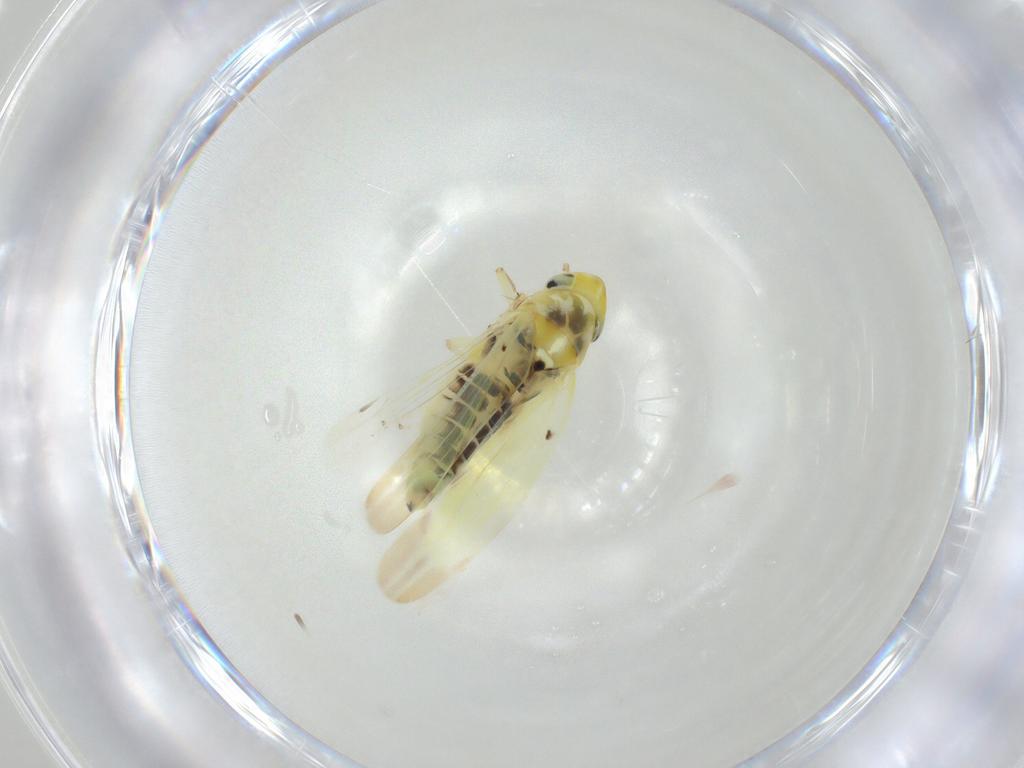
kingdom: Animalia
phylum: Arthropoda
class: Insecta
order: Hemiptera
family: Cicadellidae
